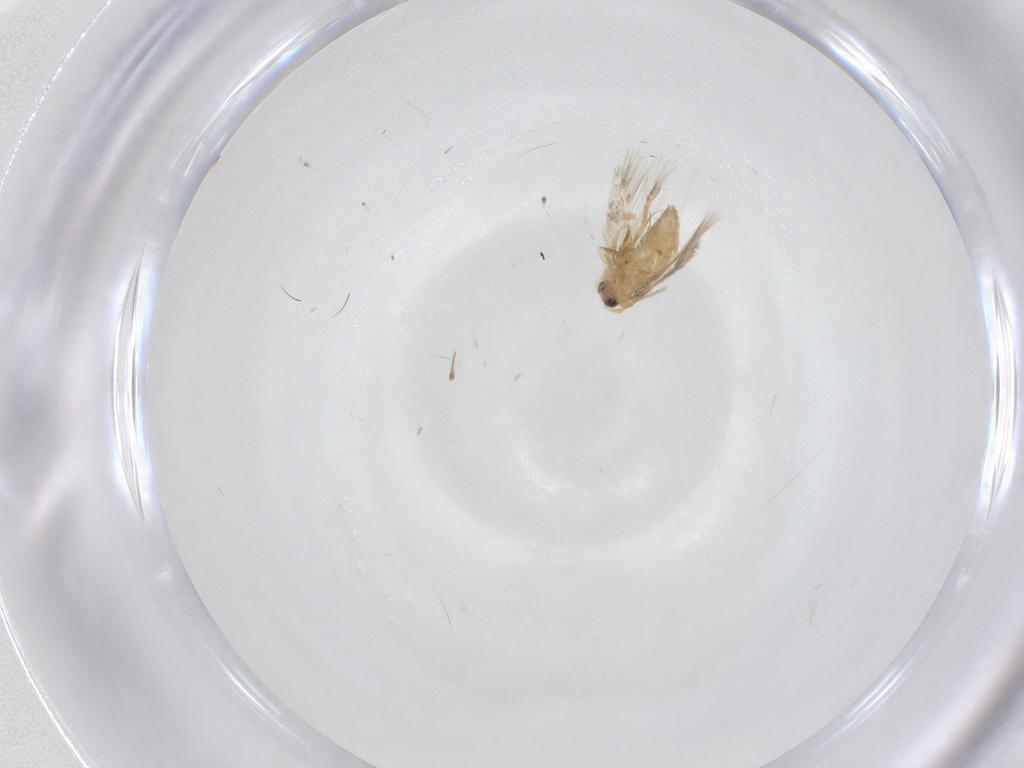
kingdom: Animalia
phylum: Arthropoda
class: Insecta
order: Lepidoptera
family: Nepticulidae
